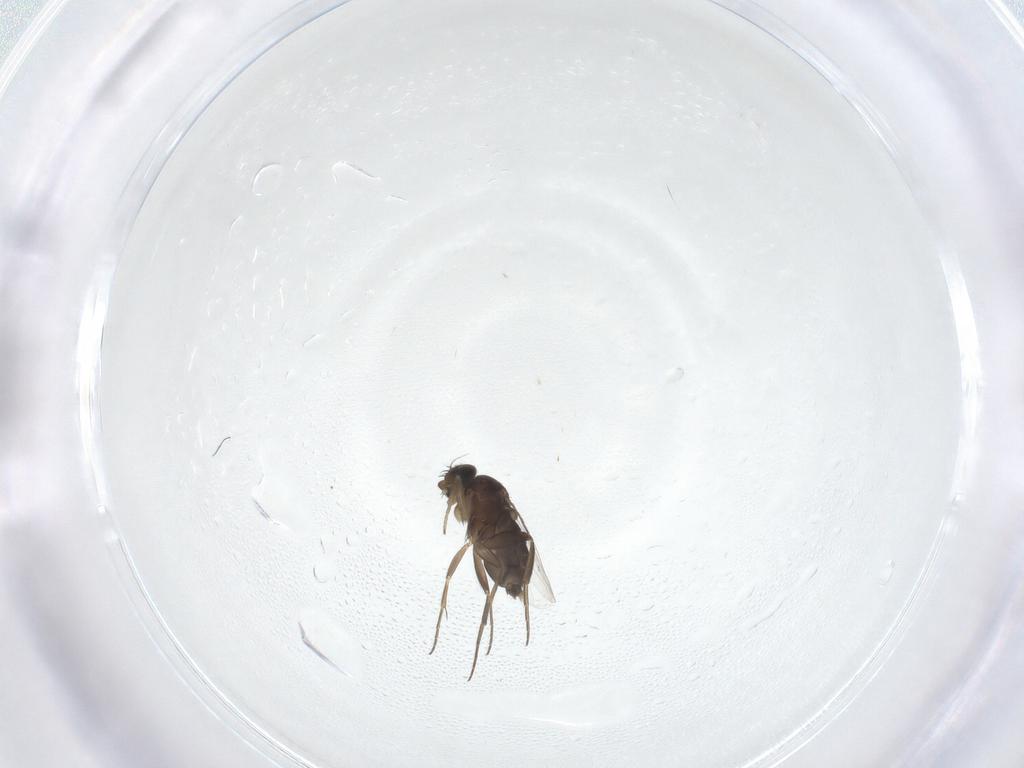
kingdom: Animalia
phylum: Arthropoda
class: Insecta
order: Diptera
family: Phoridae
